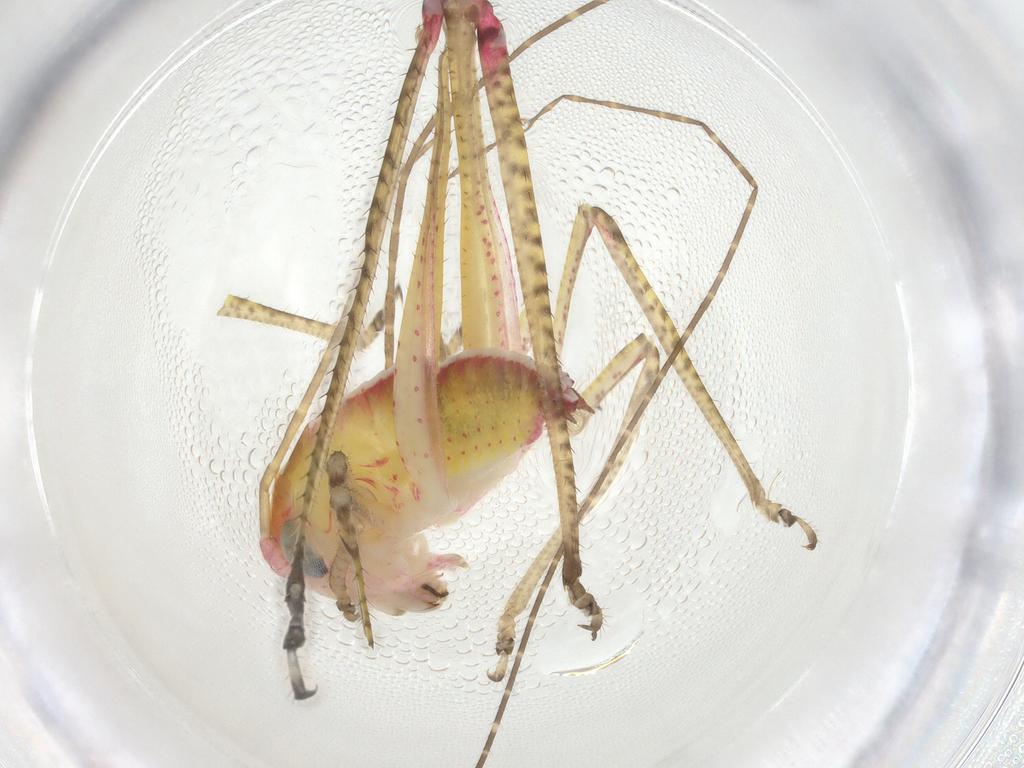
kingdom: Animalia
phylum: Arthropoda
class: Insecta
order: Orthoptera
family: Tettigoniidae
